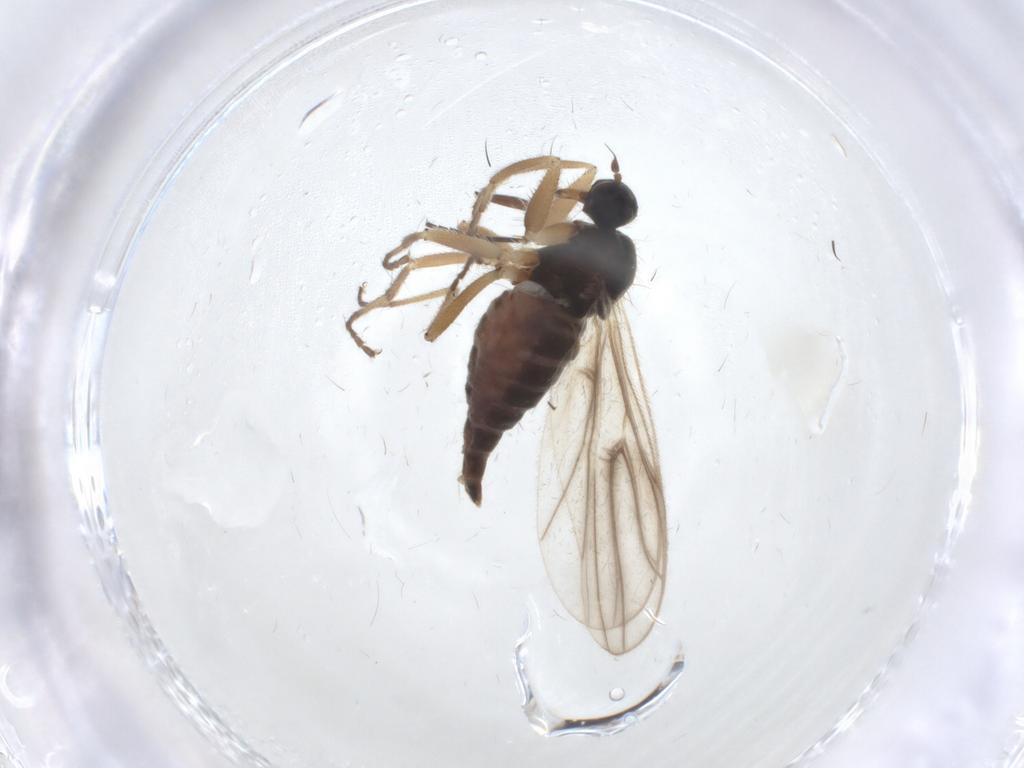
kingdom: Animalia
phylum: Arthropoda
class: Insecta
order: Diptera
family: Hybotidae
